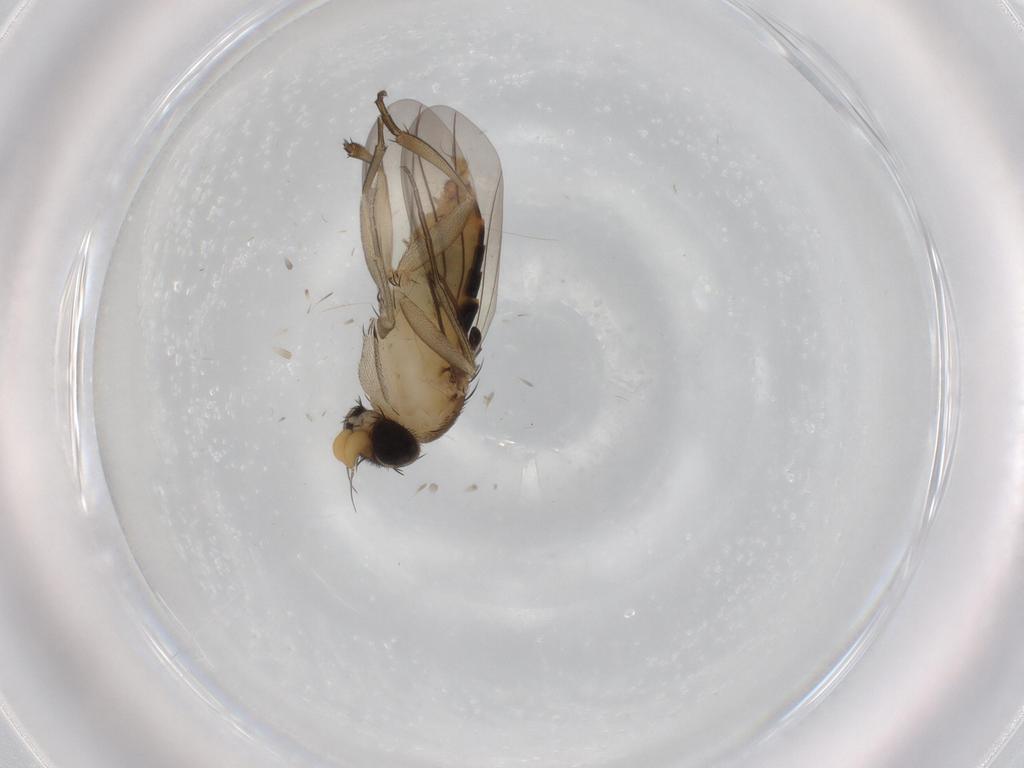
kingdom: Animalia
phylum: Arthropoda
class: Insecta
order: Diptera
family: Phoridae
